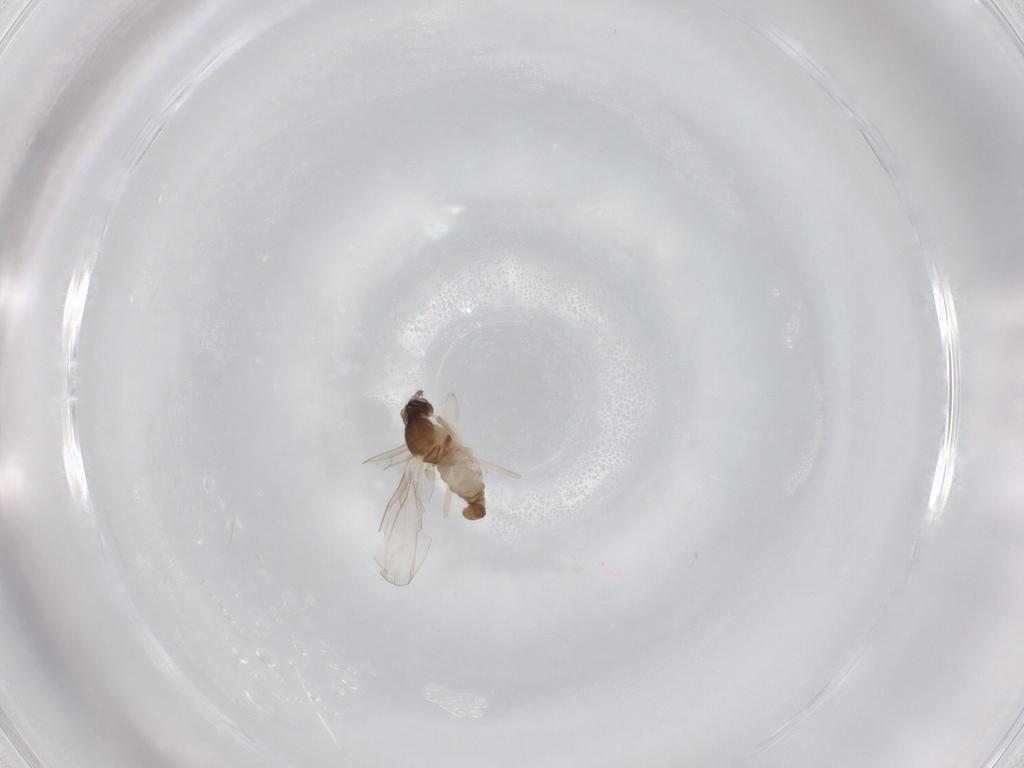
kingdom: Animalia
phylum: Arthropoda
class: Insecta
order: Diptera
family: Cecidomyiidae
